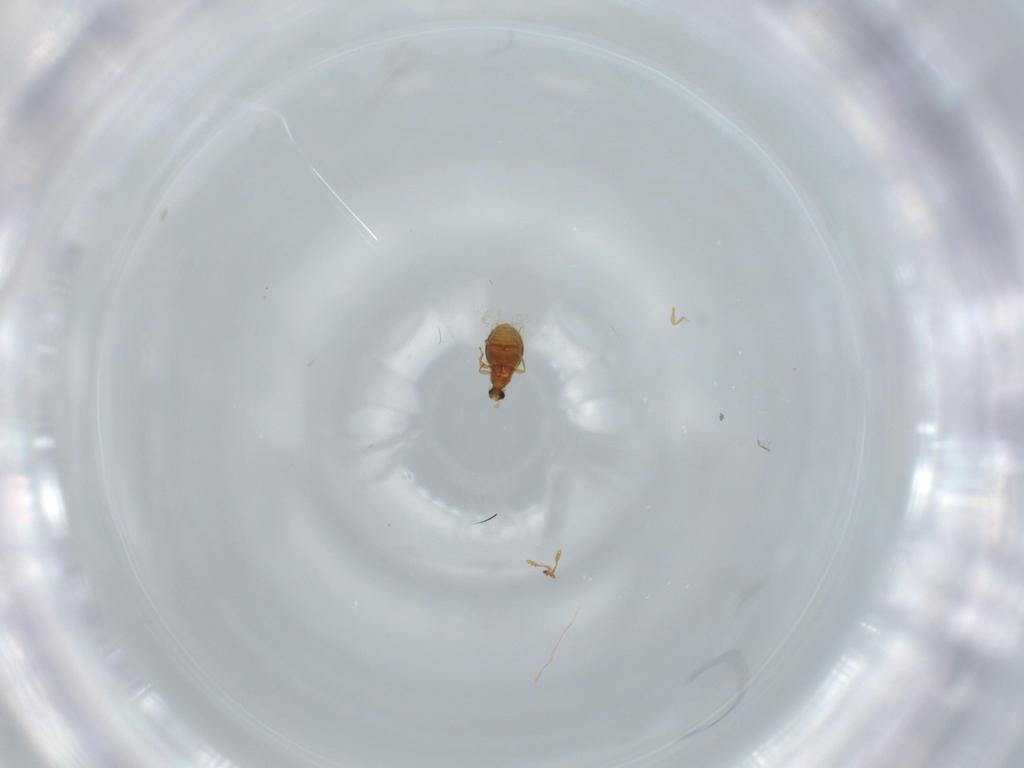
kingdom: Animalia
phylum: Arthropoda
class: Insecta
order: Coleoptera
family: Staphylinidae
